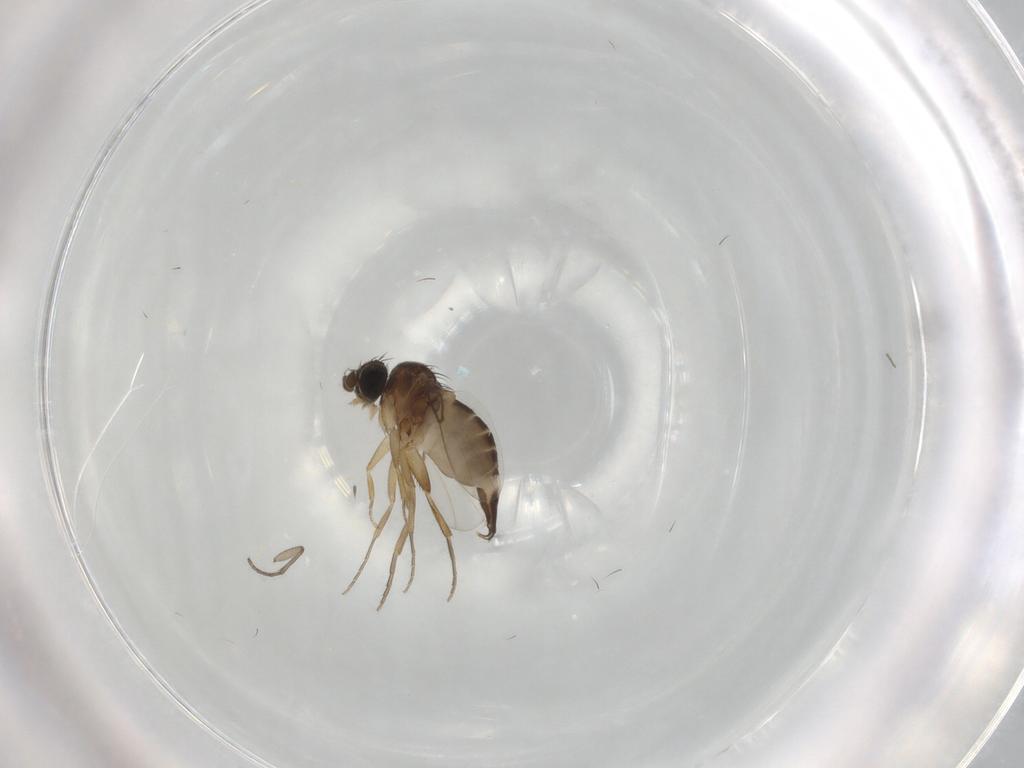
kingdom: Animalia
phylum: Arthropoda
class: Insecta
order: Diptera
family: Phoridae
